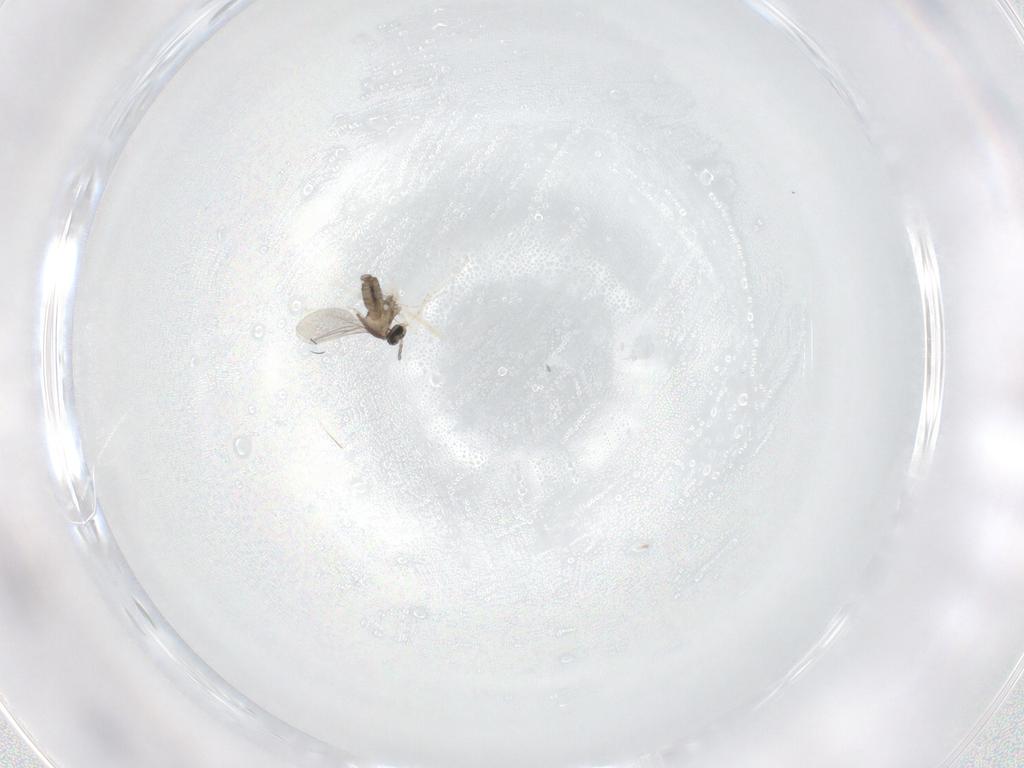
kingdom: Animalia
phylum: Arthropoda
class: Insecta
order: Diptera
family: Cecidomyiidae
